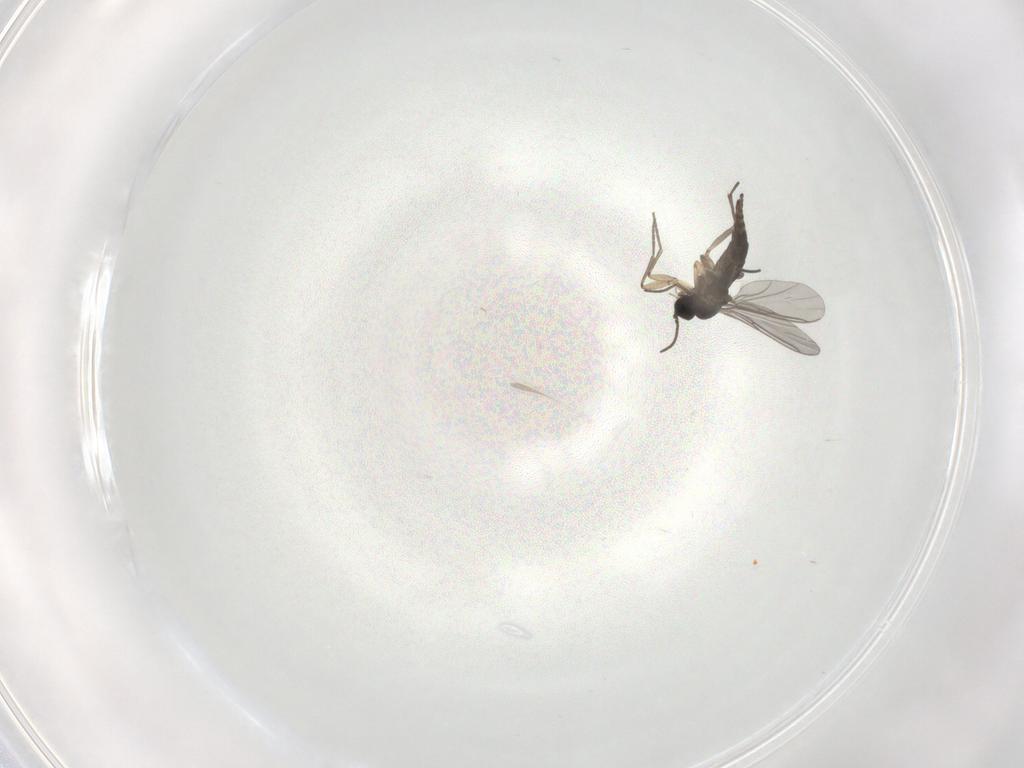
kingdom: Animalia
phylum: Arthropoda
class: Insecta
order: Diptera
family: Sciaridae
